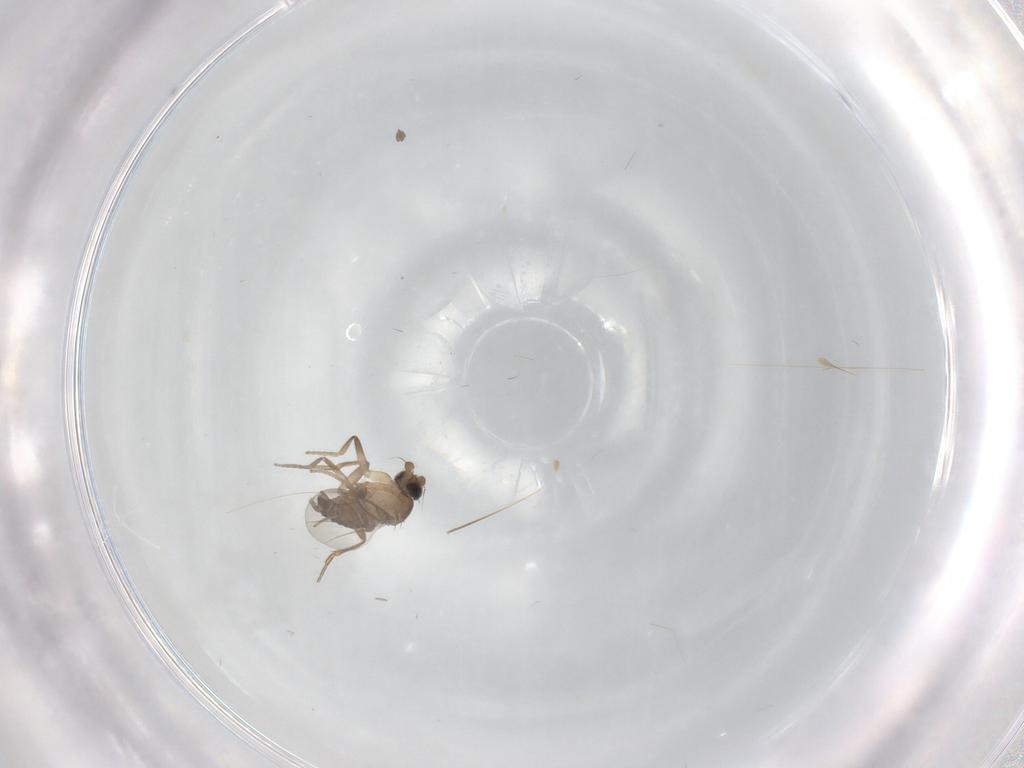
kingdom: Animalia
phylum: Arthropoda
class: Insecta
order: Diptera
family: Phoridae
